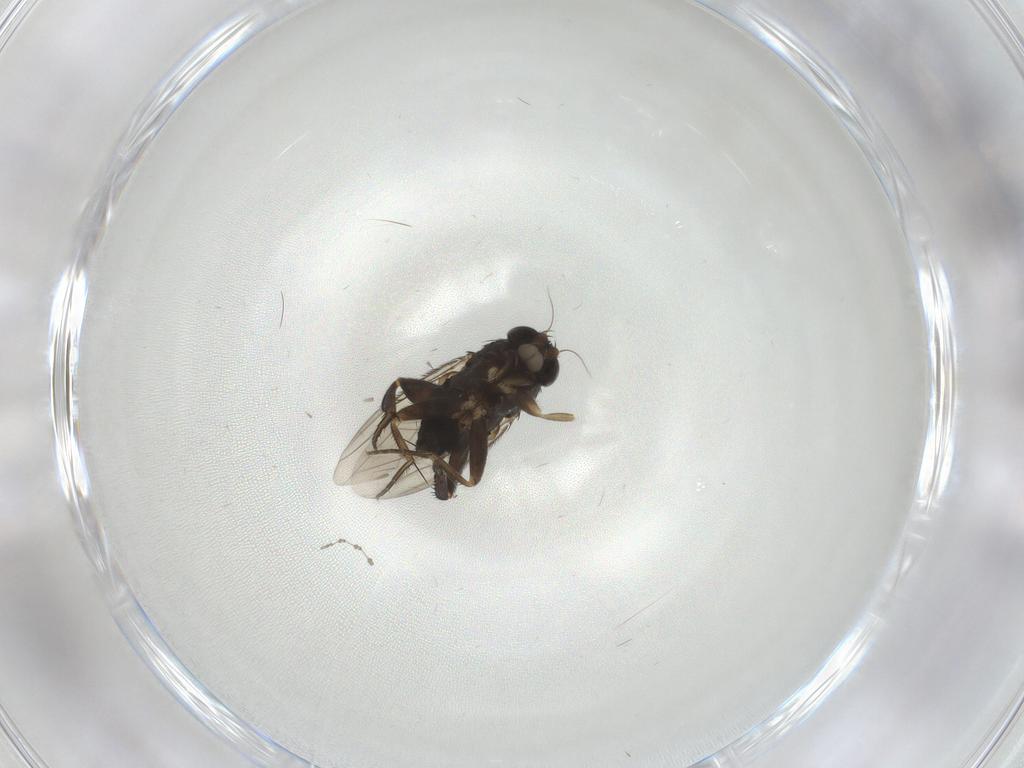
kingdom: Animalia
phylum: Arthropoda
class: Insecta
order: Diptera
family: Phoridae
